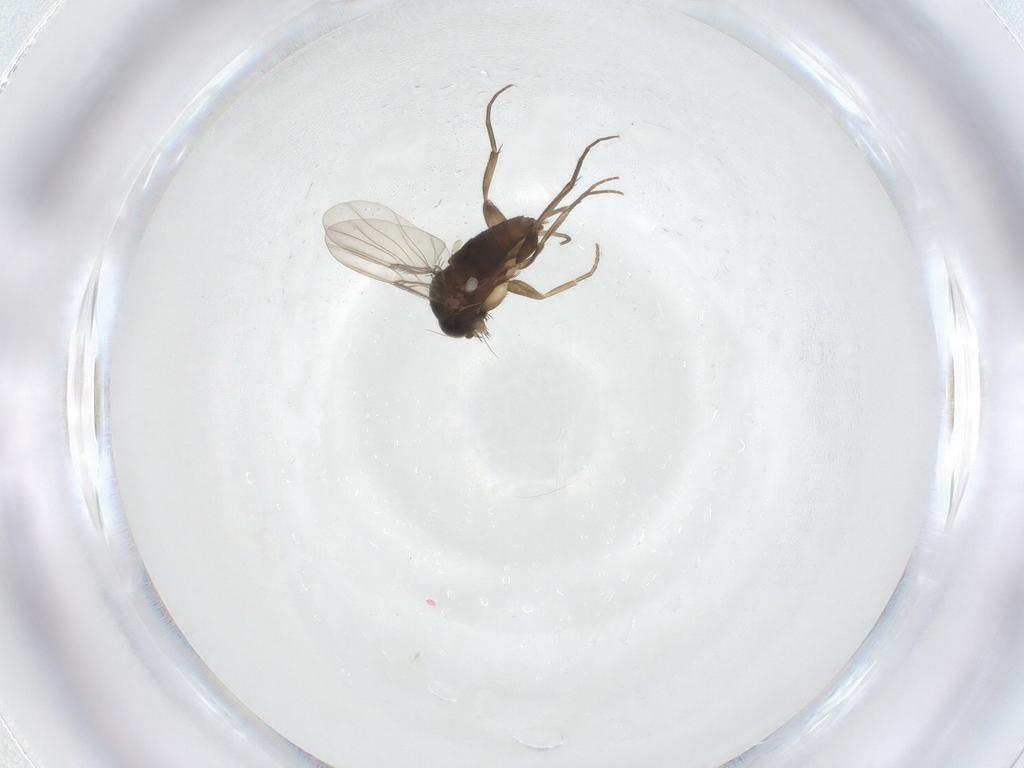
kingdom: Animalia
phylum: Arthropoda
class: Insecta
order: Diptera
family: Phoridae
